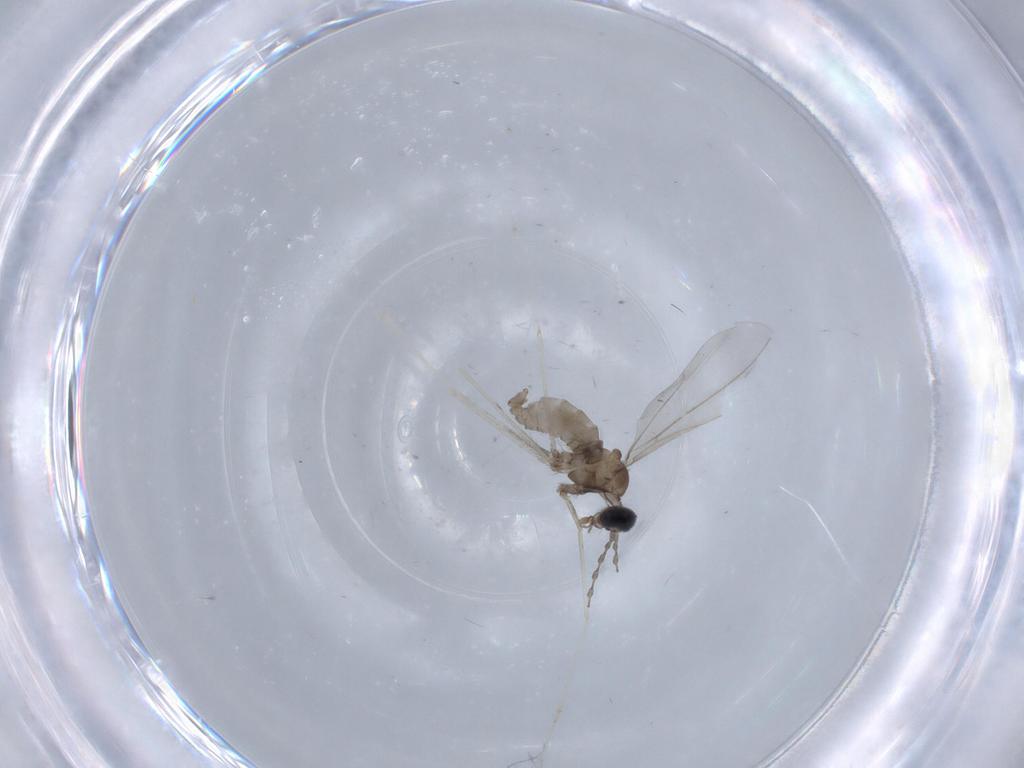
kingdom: Animalia
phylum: Arthropoda
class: Insecta
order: Diptera
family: Cecidomyiidae
